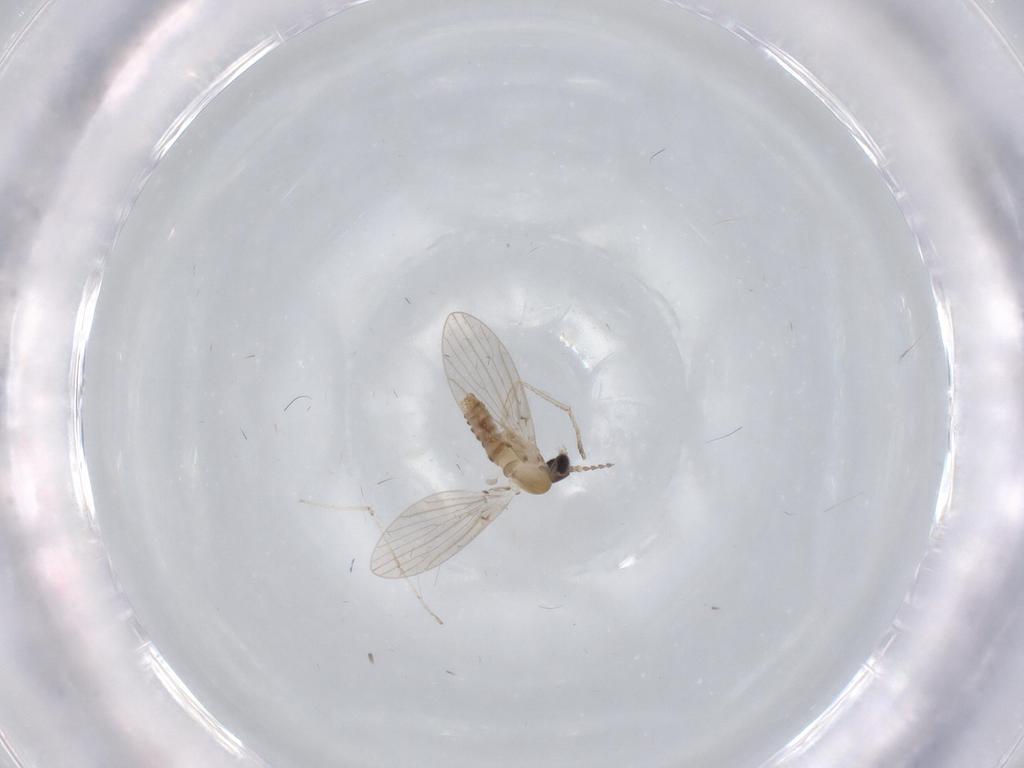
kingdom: Animalia
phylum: Arthropoda
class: Insecta
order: Diptera
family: Cecidomyiidae
